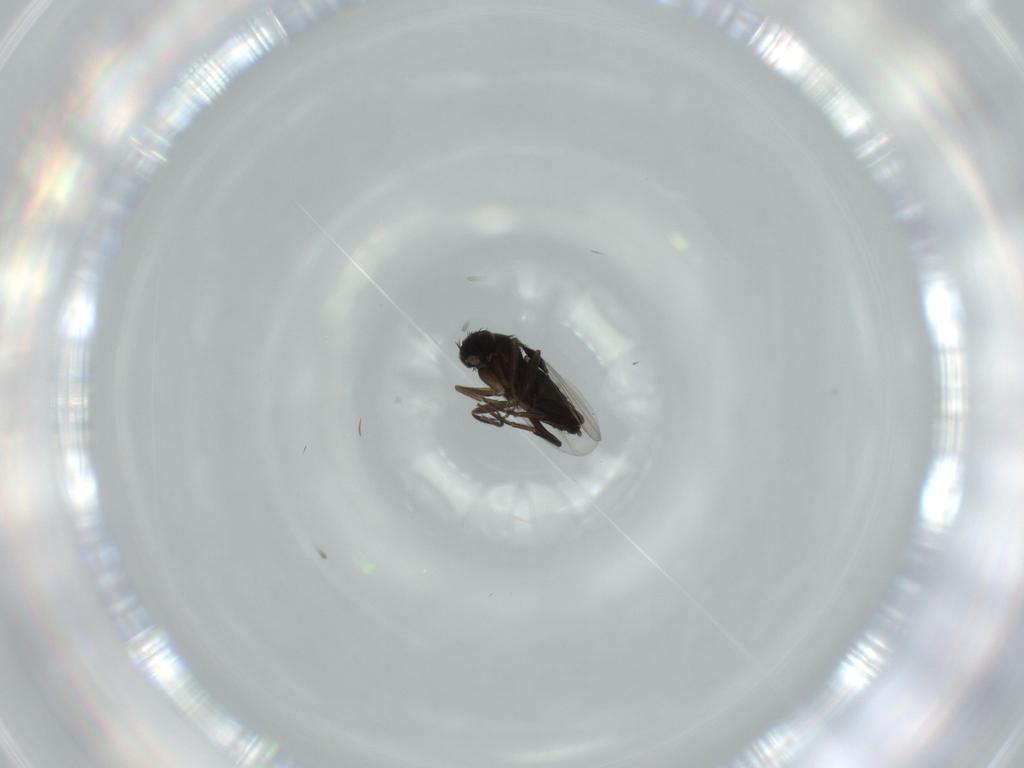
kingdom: Animalia
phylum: Arthropoda
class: Insecta
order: Diptera
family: Phoridae
